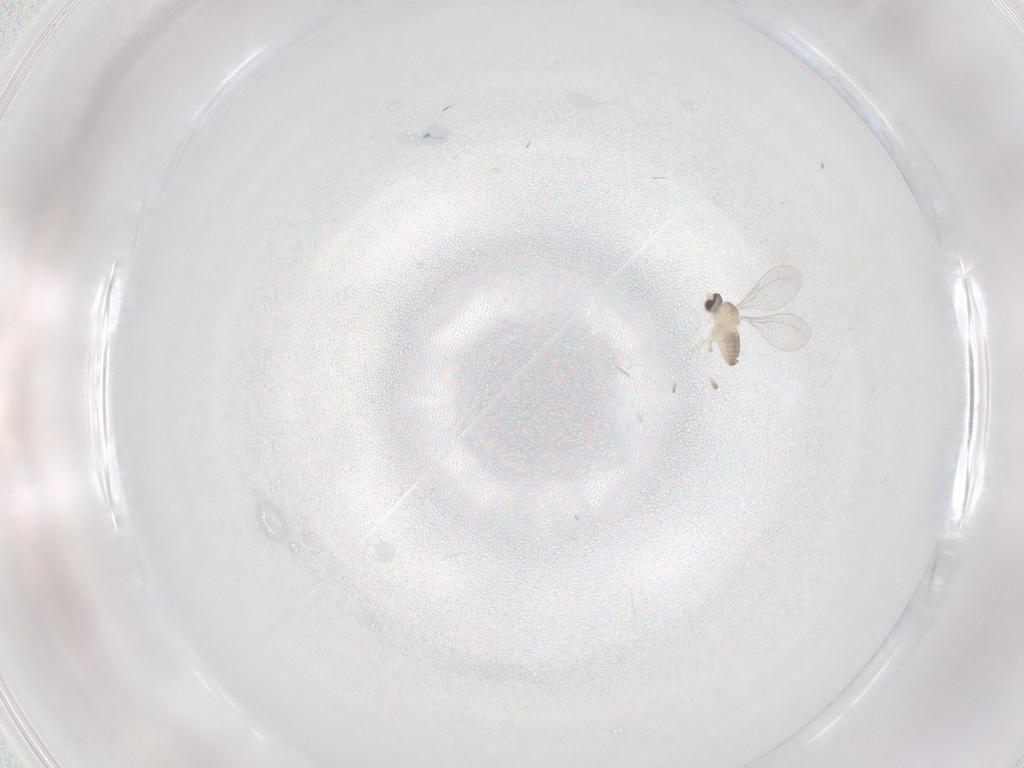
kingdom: Animalia
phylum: Arthropoda
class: Insecta
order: Diptera
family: Cecidomyiidae
